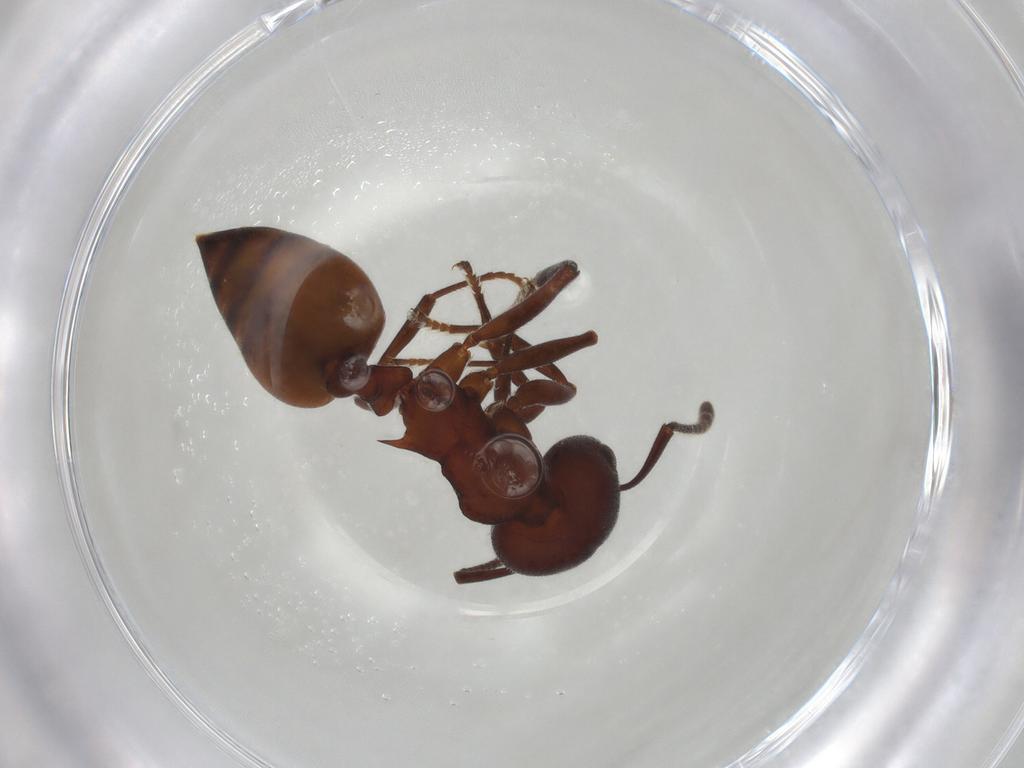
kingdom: Animalia
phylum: Arthropoda
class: Insecta
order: Hymenoptera
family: Formicidae
